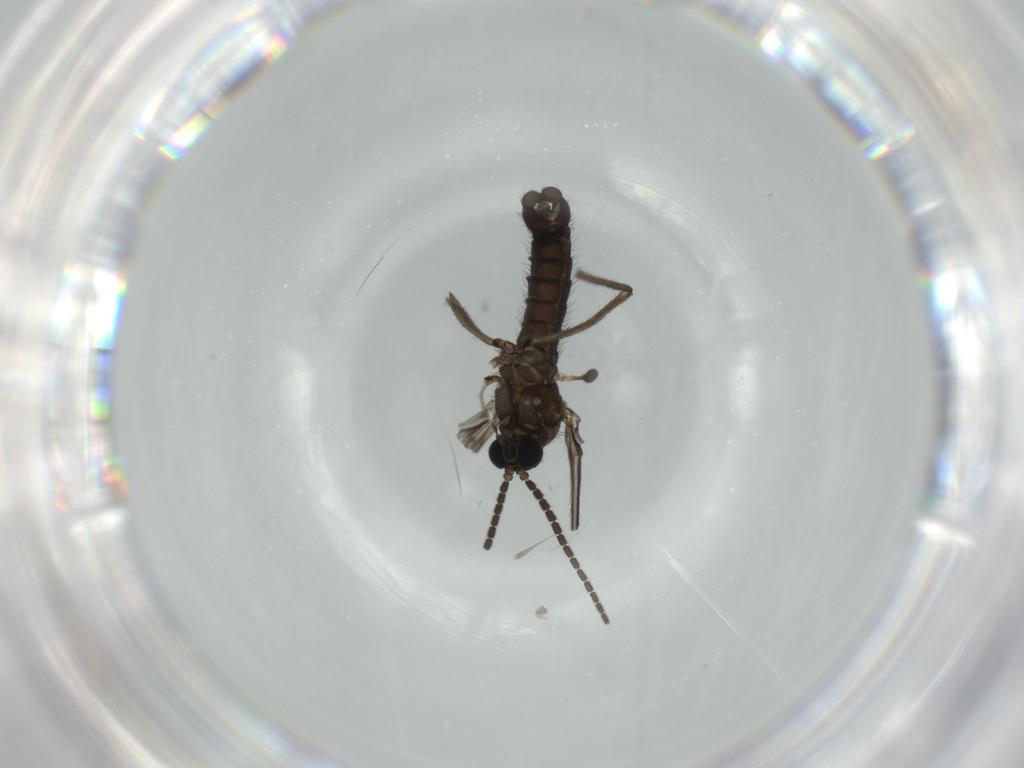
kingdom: Animalia
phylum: Arthropoda
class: Insecta
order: Diptera
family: Sciaridae
